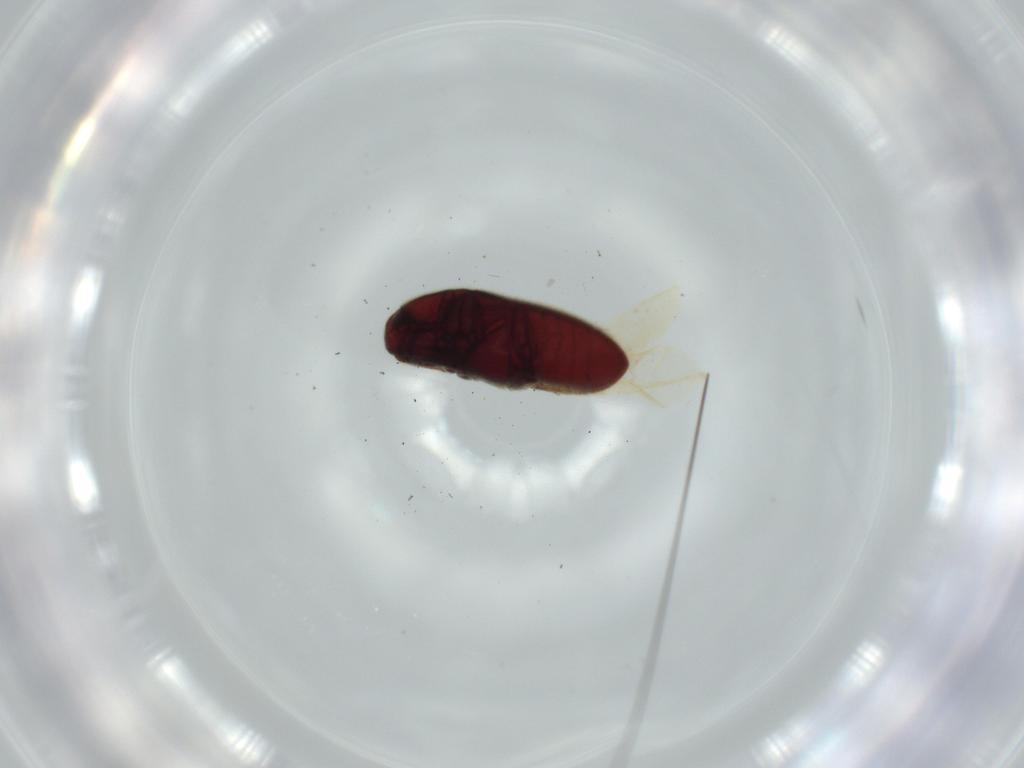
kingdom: Animalia
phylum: Arthropoda
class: Insecta
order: Coleoptera
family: Throscidae
